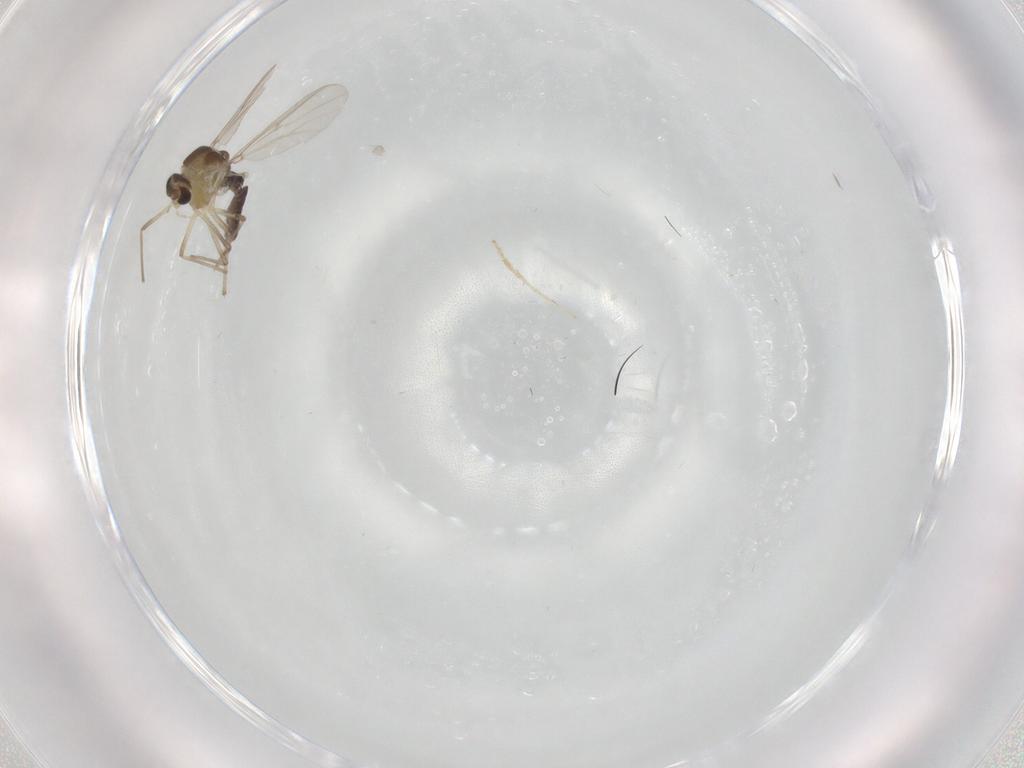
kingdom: Animalia
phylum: Arthropoda
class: Insecta
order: Diptera
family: Chironomidae
